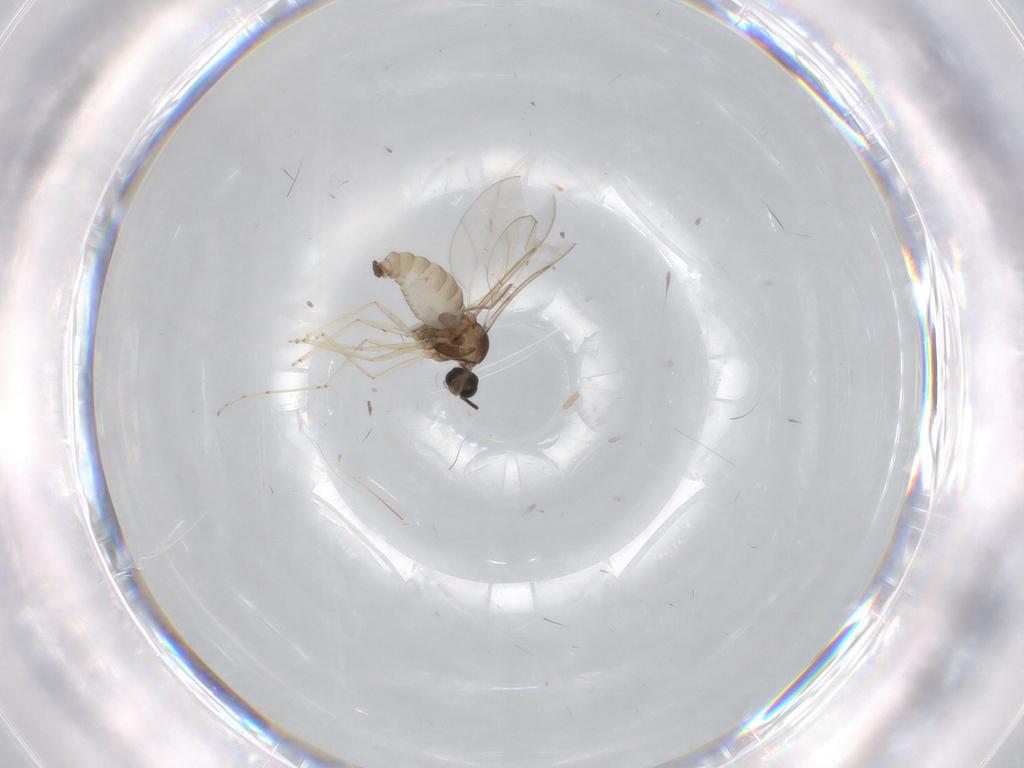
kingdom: Animalia
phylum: Arthropoda
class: Insecta
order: Diptera
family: Cecidomyiidae
